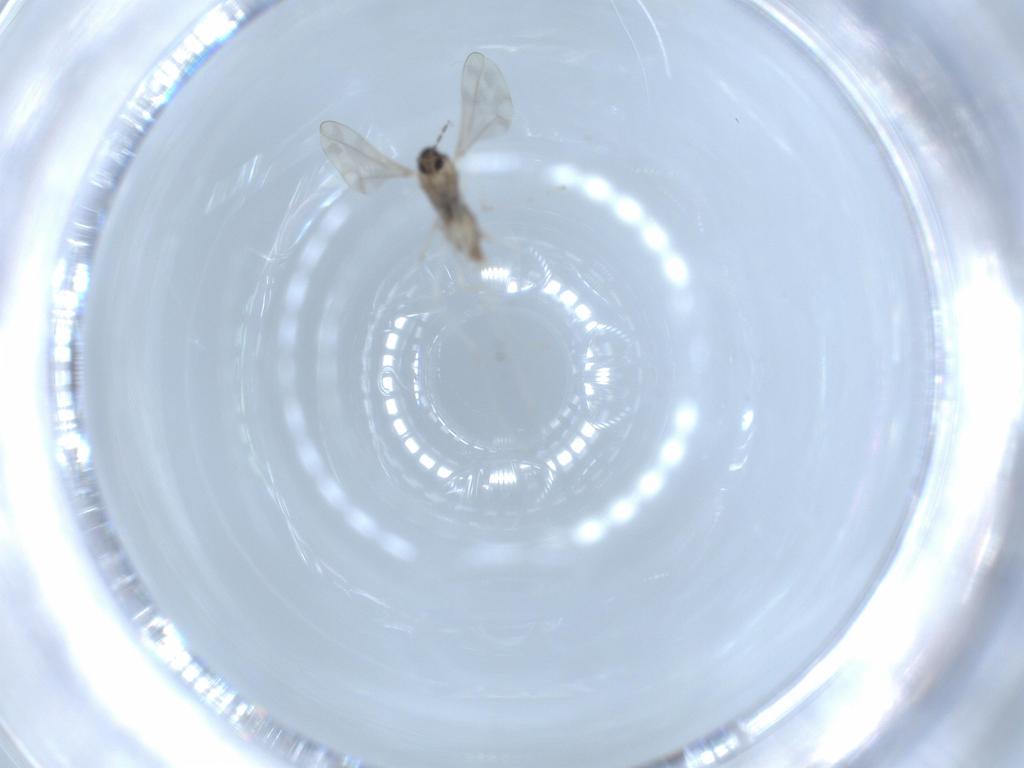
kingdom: Animalia
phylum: Arthropoda
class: Insecta
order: Diptera
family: Cecidomyiidae
